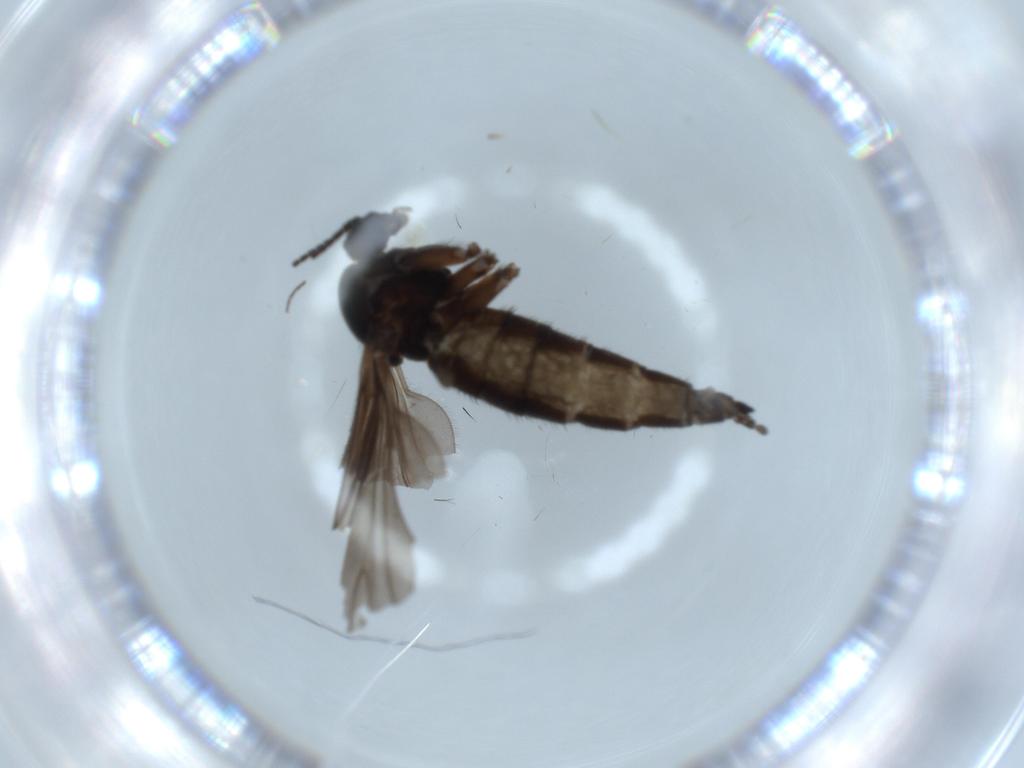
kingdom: Animalia
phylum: Arthropoda
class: Insecta
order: Diptera
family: Sciaridae
